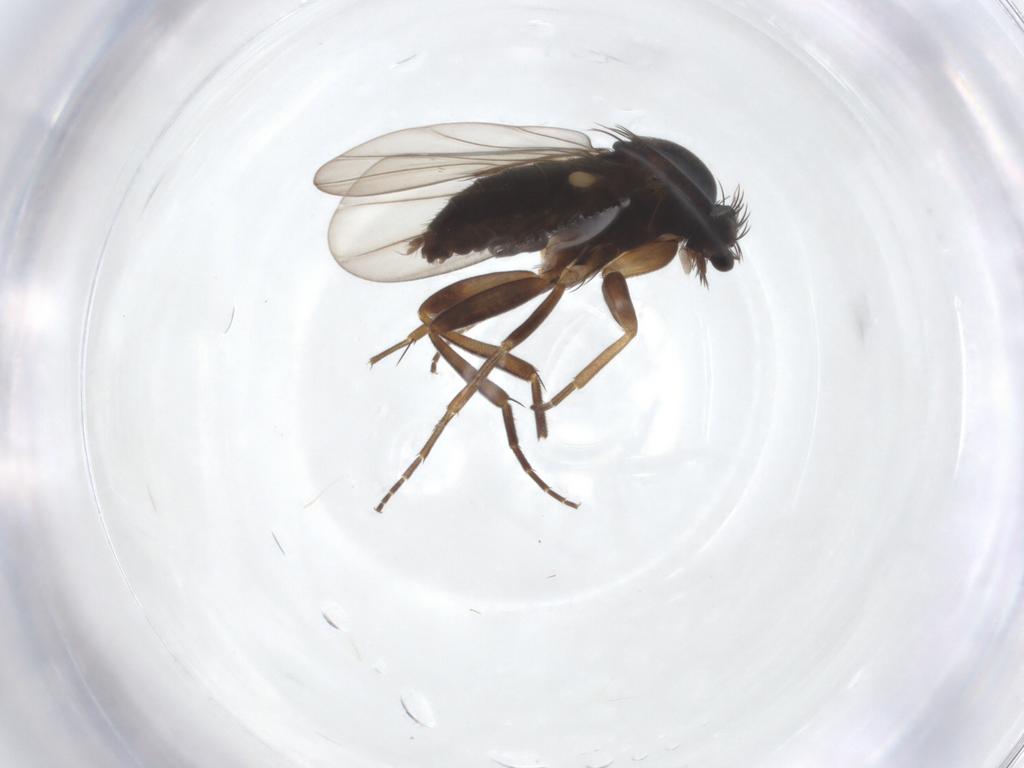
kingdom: Animalia
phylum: Arthropoda
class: Insecta
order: Diptera
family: Phoridae
